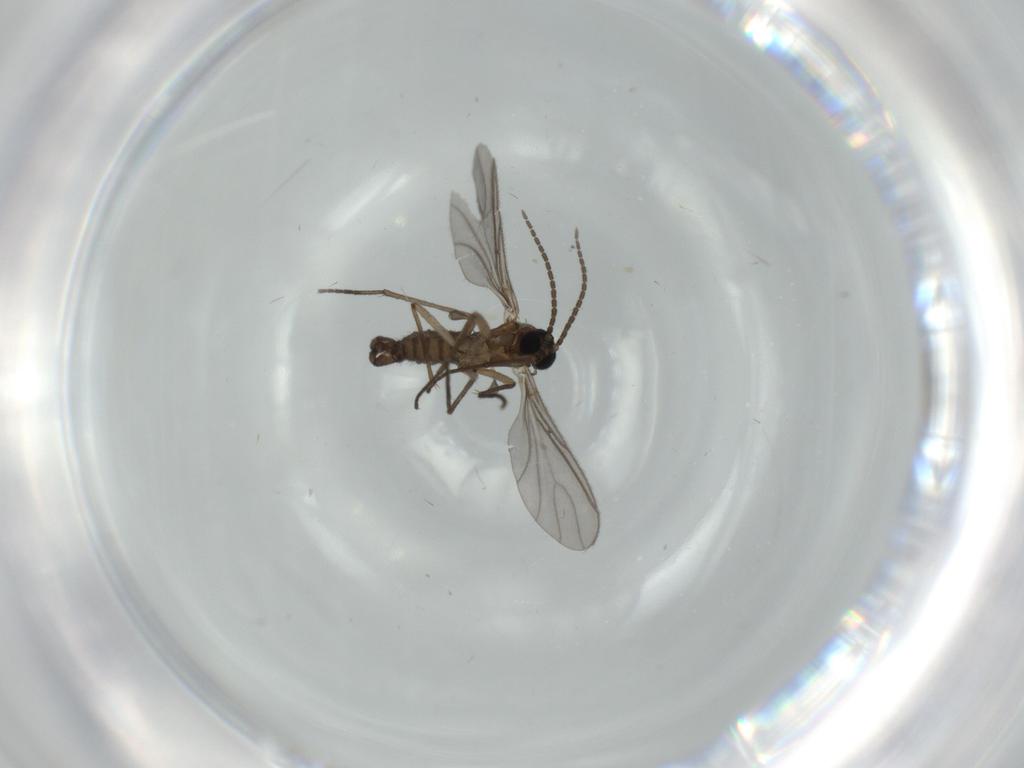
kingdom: Animalia
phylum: Arthropoda
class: Insecta
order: Diptera
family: Sciaridae
